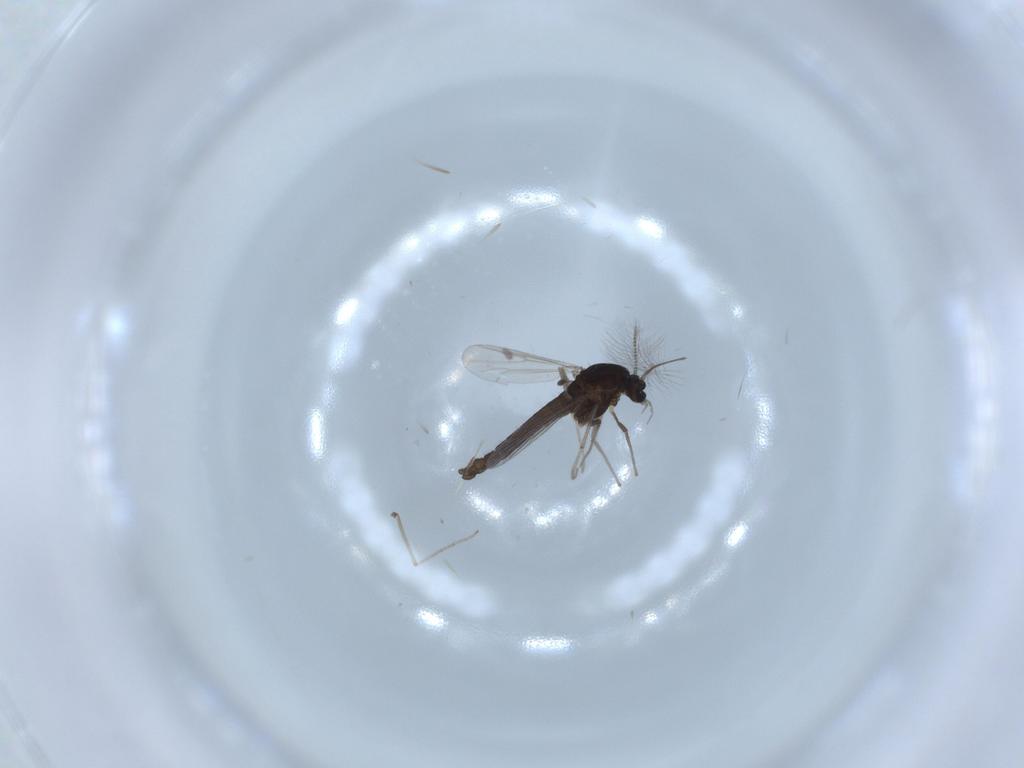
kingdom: Animalia
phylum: Arthropoda
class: Insecta
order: Diptera
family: Chironomidae
